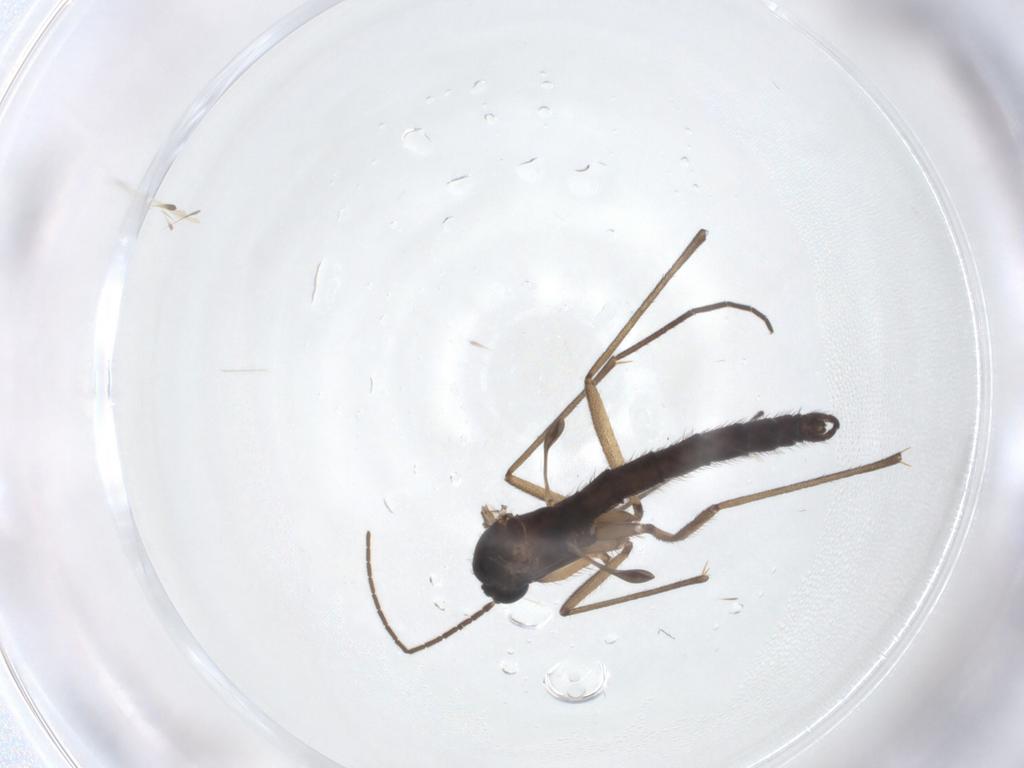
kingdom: Animalia
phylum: Arthropoda
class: Insecta
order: Diptera
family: Sciaridae
